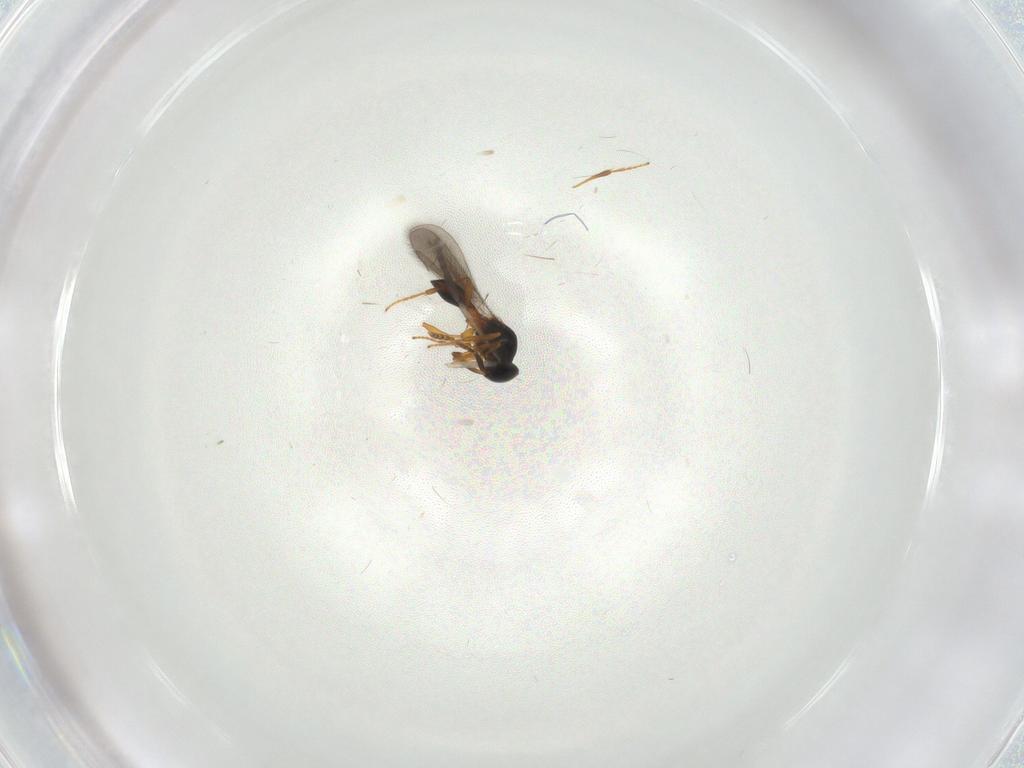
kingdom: Animalia
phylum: Arthropoda
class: Insecta
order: Hymenoptera
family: Platygastridae
